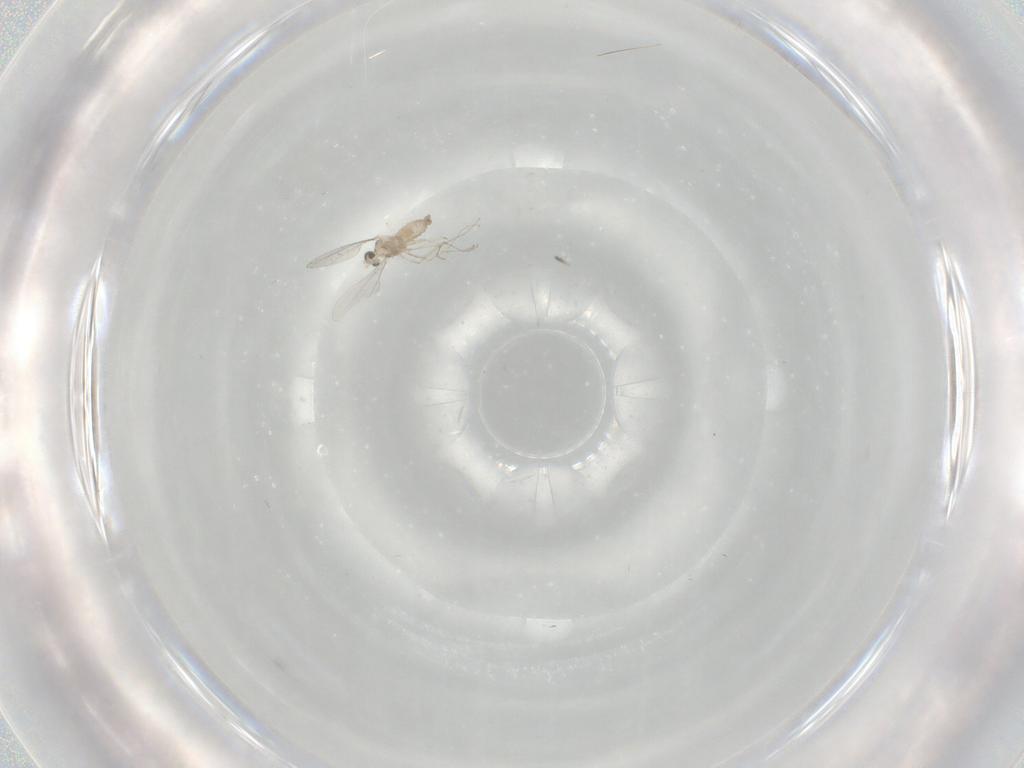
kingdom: Animalia
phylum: Arthropoda
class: Insecta
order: Diptera
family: Cecidomyiidae
